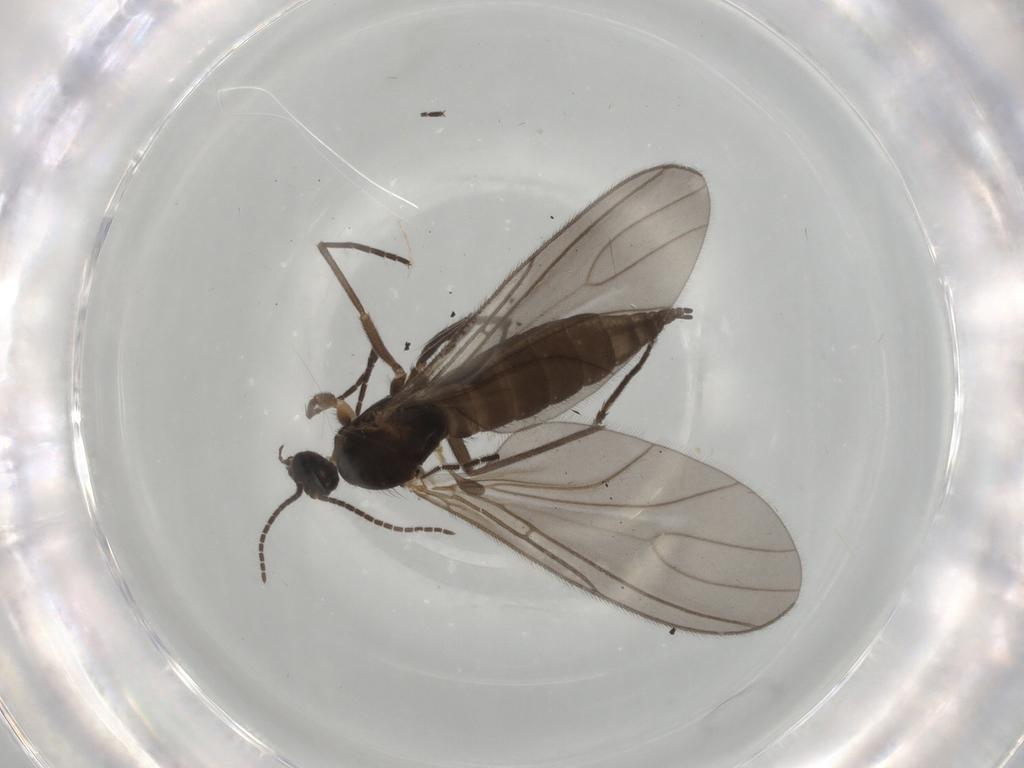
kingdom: Animalia
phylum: Arthropoda
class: Insecta
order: Diptera
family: Sciaridae
